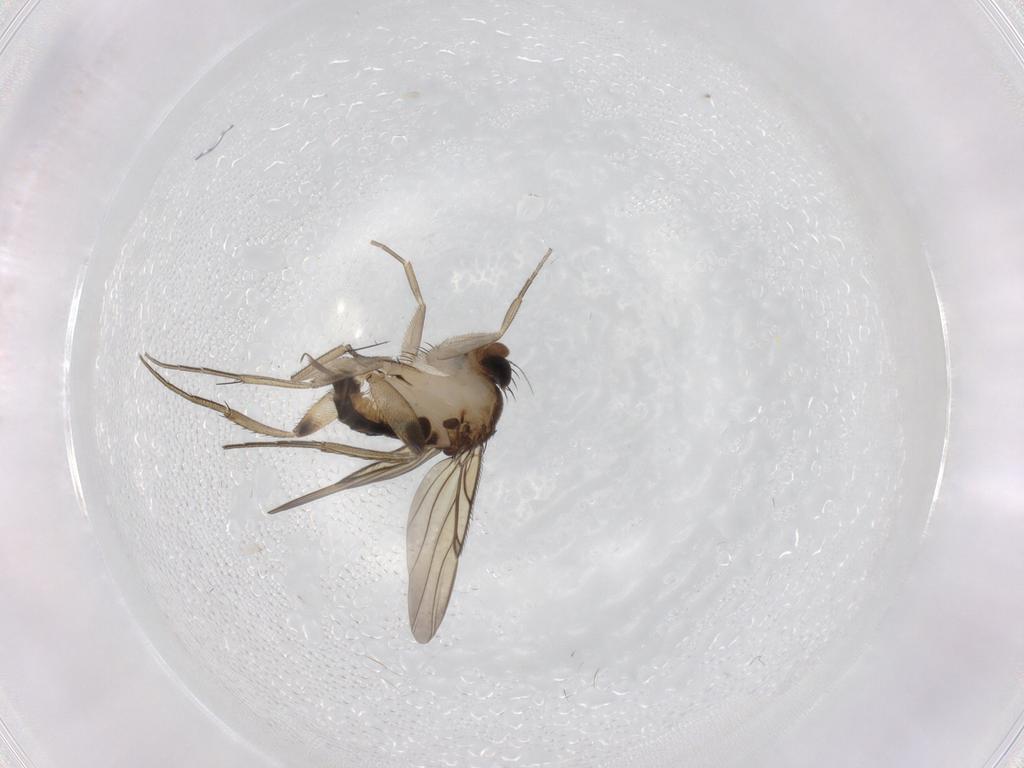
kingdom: Animalia
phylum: Arthropoda
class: Insecta
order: Diptera
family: Phoridae
